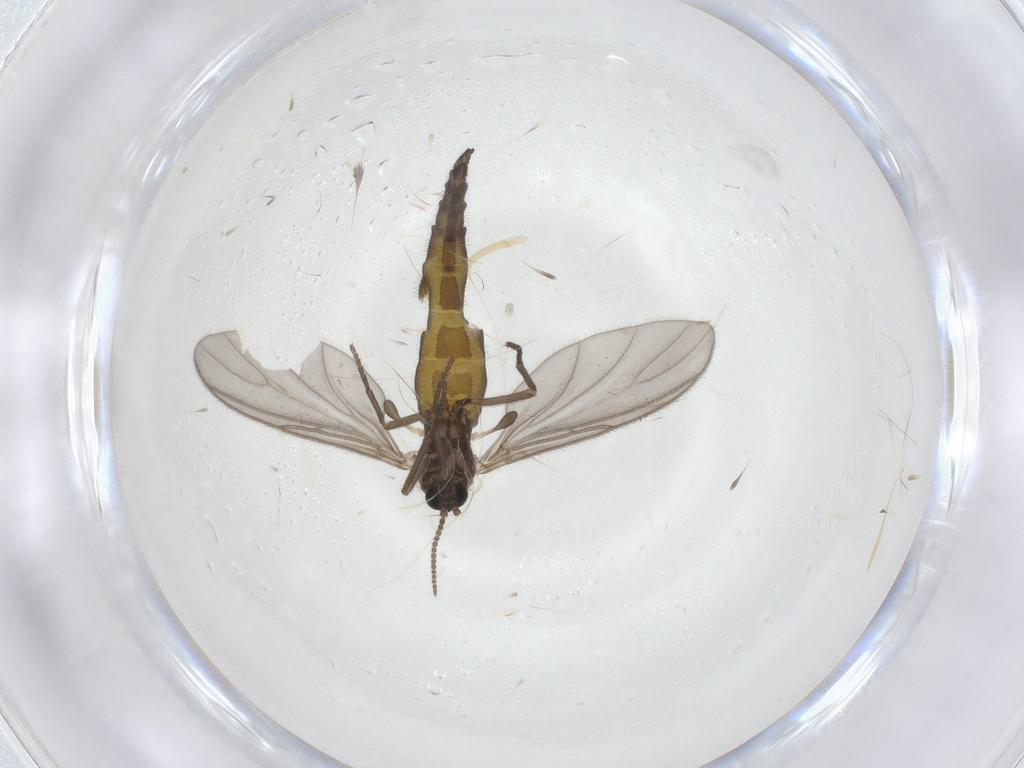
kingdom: Animalia
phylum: Arthropoda
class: Insecta
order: Diptera
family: Sciaridae
